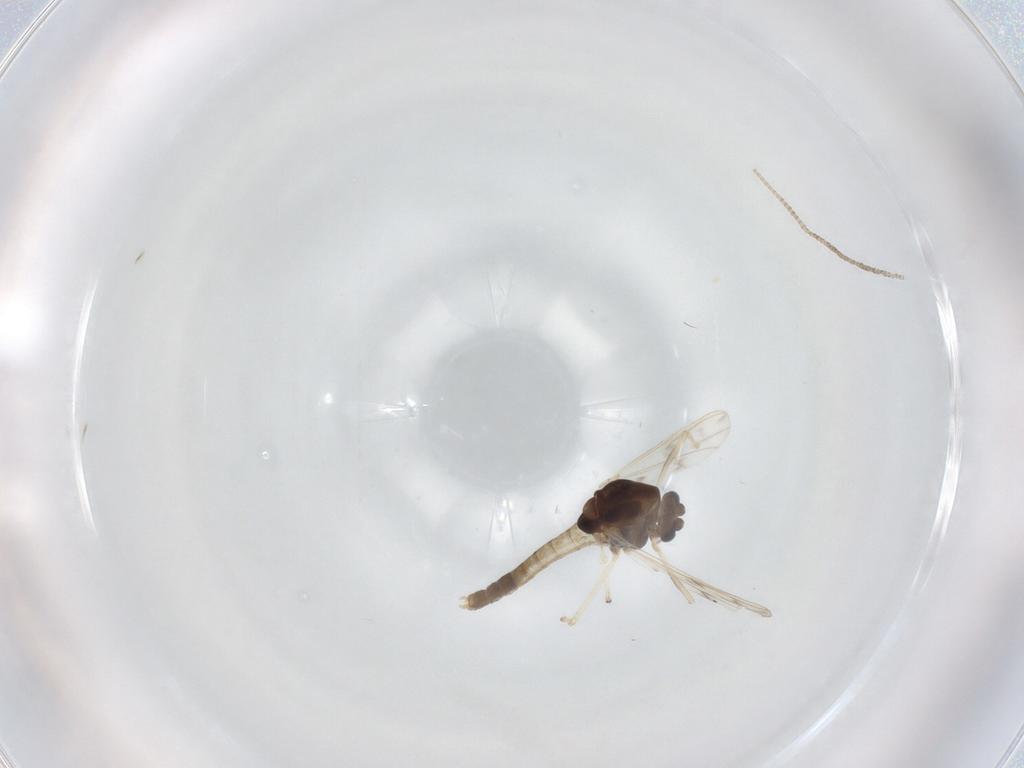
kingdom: Animalia
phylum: Arthropoda
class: Insecta
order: Diptera
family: Chironomidae
